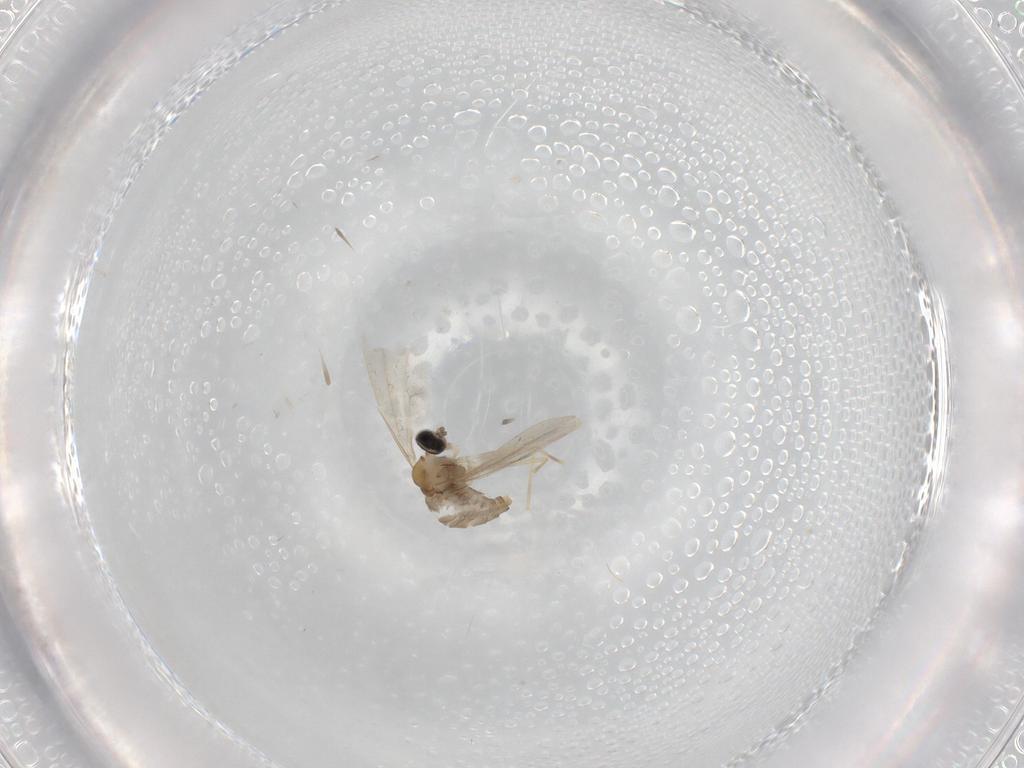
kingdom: Animalia
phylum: Arthropoda
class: Insecta
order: Diptera
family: Cecidomyiidae
